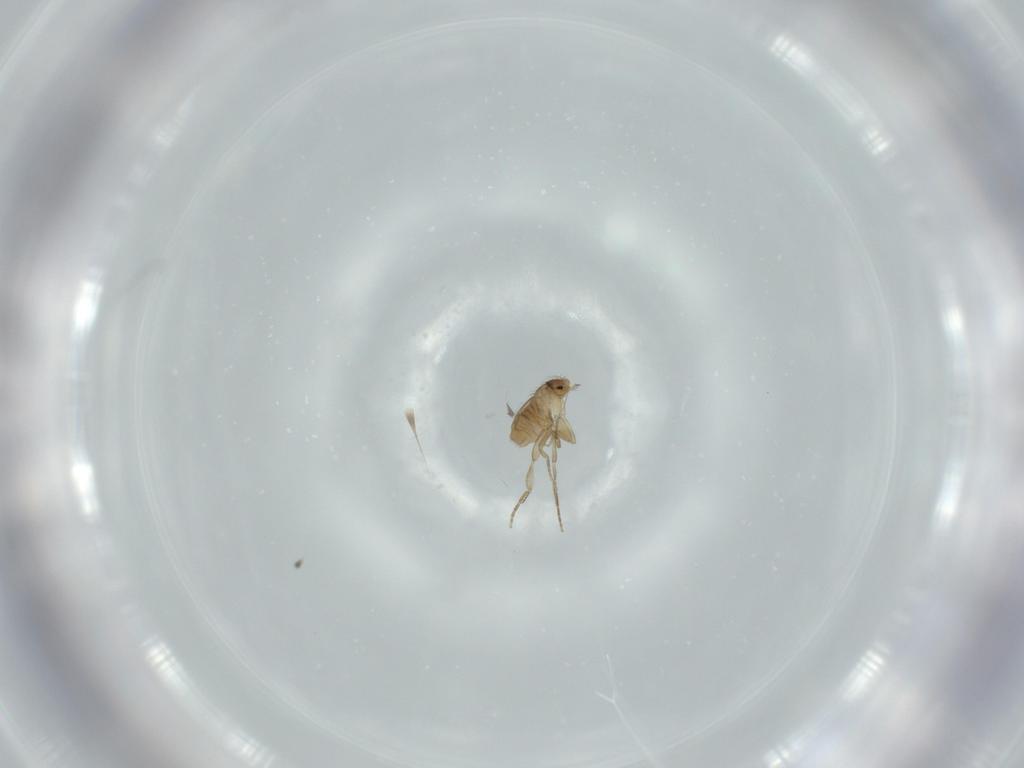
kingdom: Animalia
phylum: Arthropoda
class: Insecta
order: Diptera
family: Phoridae
